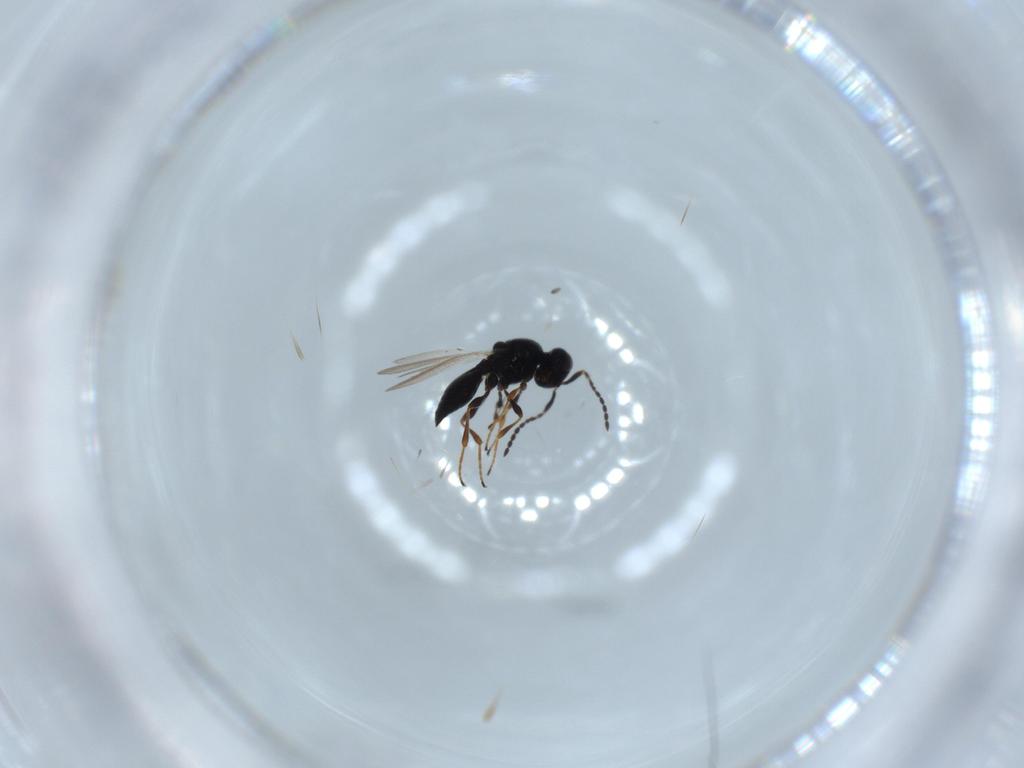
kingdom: Animalia
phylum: Arthropoda
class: Insecta
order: Hymenoptera
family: Platygastridae
